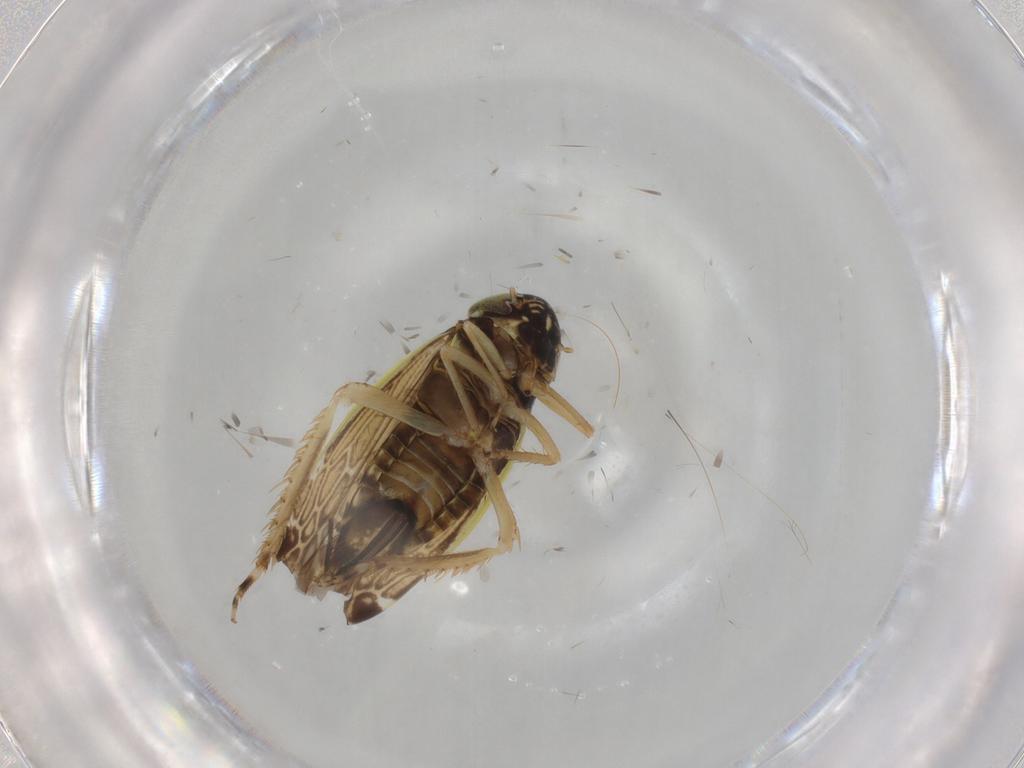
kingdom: Animalia
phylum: Arthropoda
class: Insecta
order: Hemiptera
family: Cicadellidae
